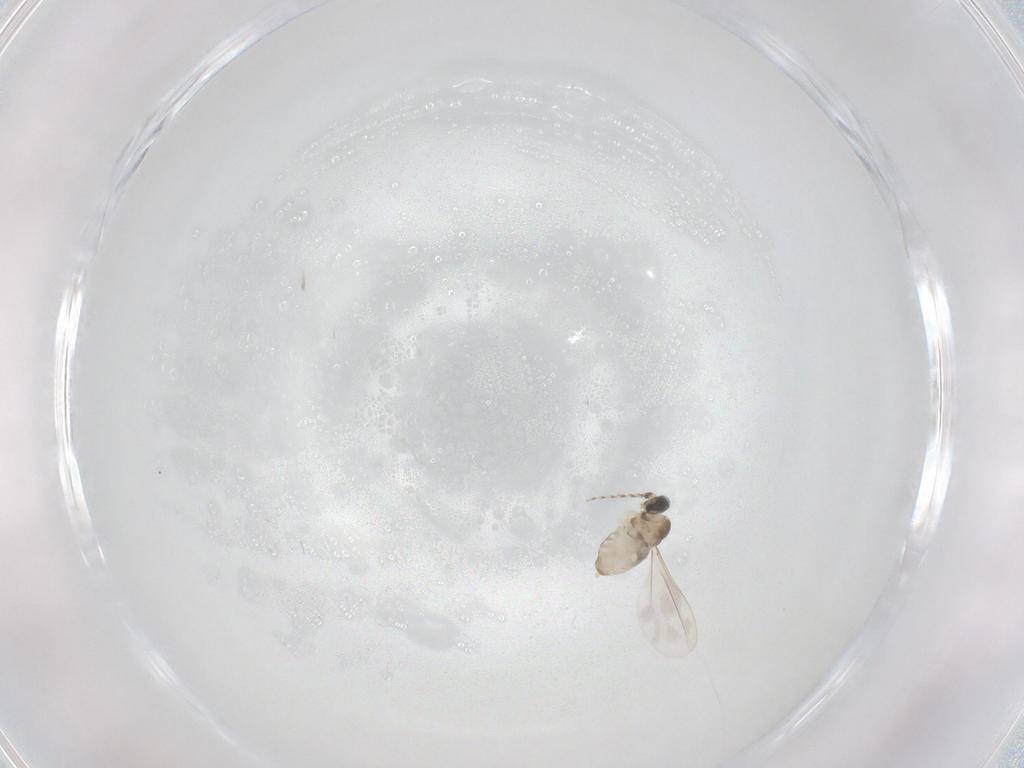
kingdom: Animalia
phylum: Arthropoda
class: Insecta
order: Diptera
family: Cecidomyiidae
